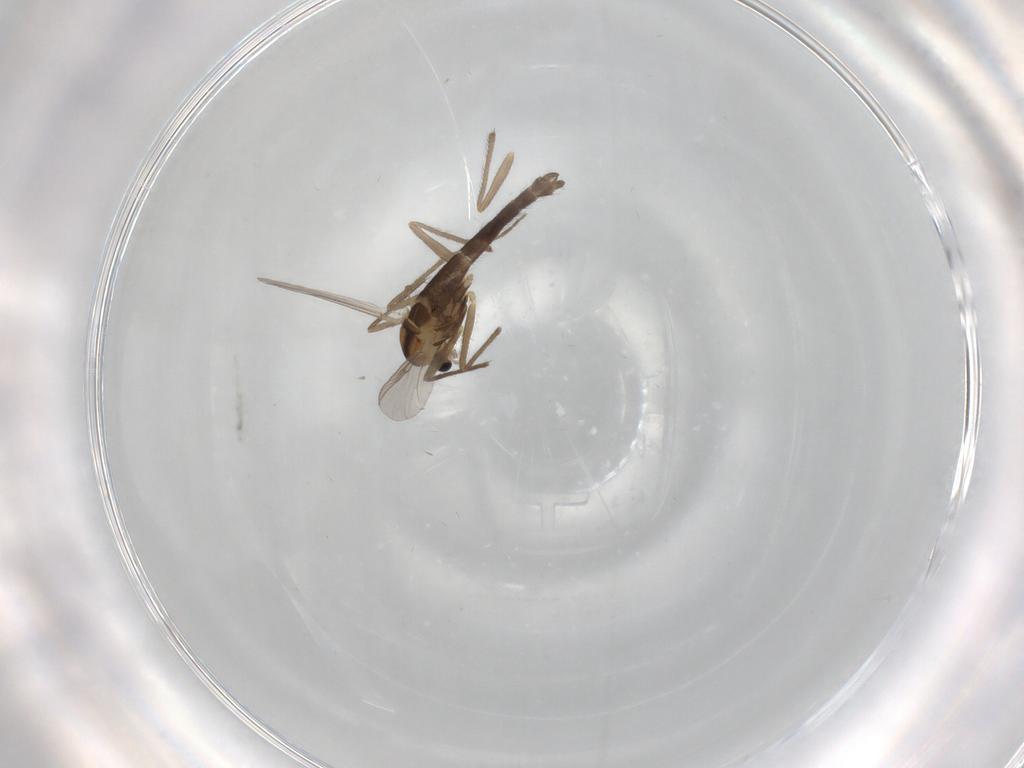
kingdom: Animalia
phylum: Arthropoda
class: Insecta
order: Diptera
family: Chironomidae
